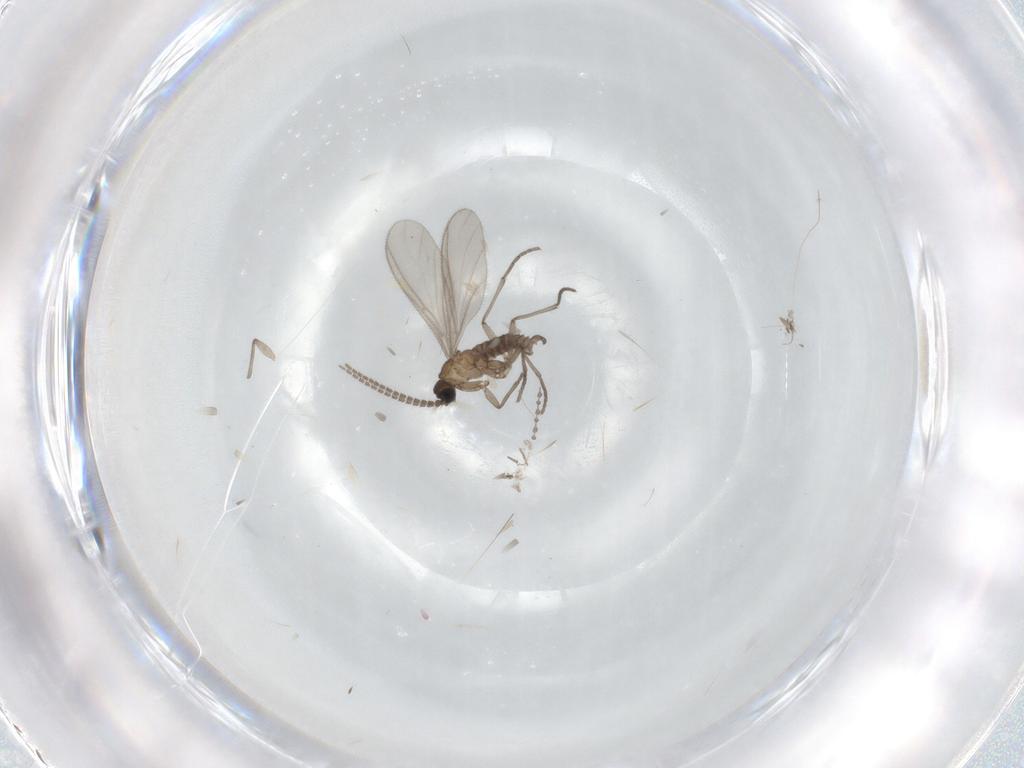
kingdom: Animalia
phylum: Arthropoda
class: Insecta
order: Diptera
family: Sciaridae
